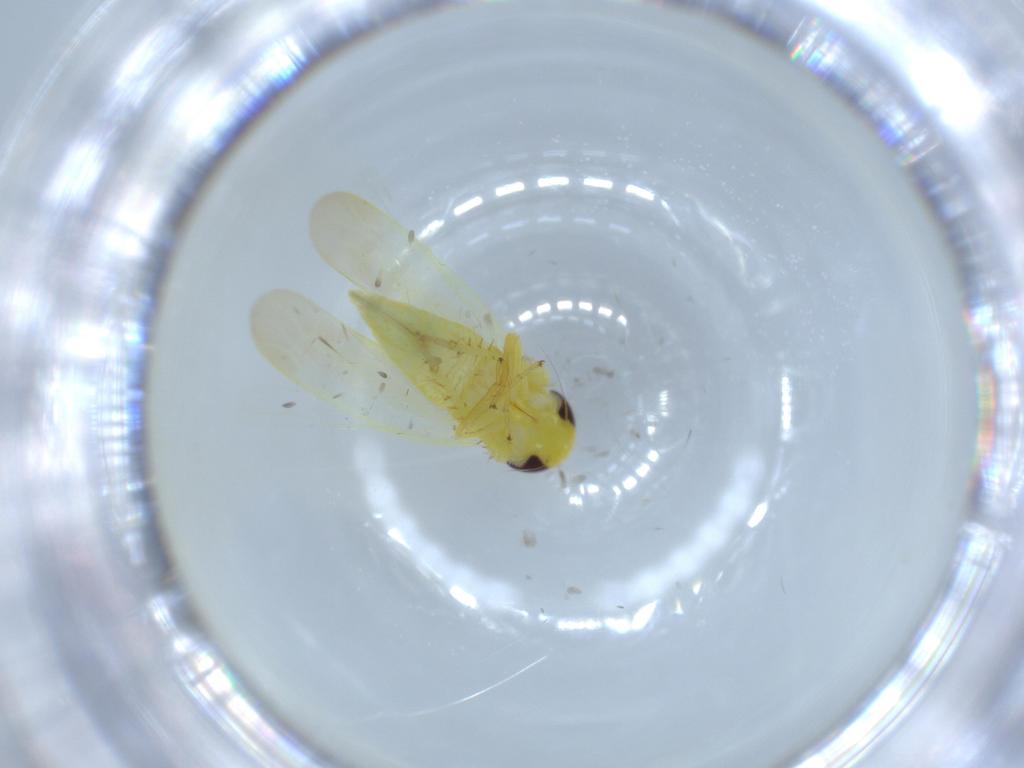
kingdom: Animalia
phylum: Arthropoda
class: Insecta
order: Hemiptera
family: Cicadellidae
